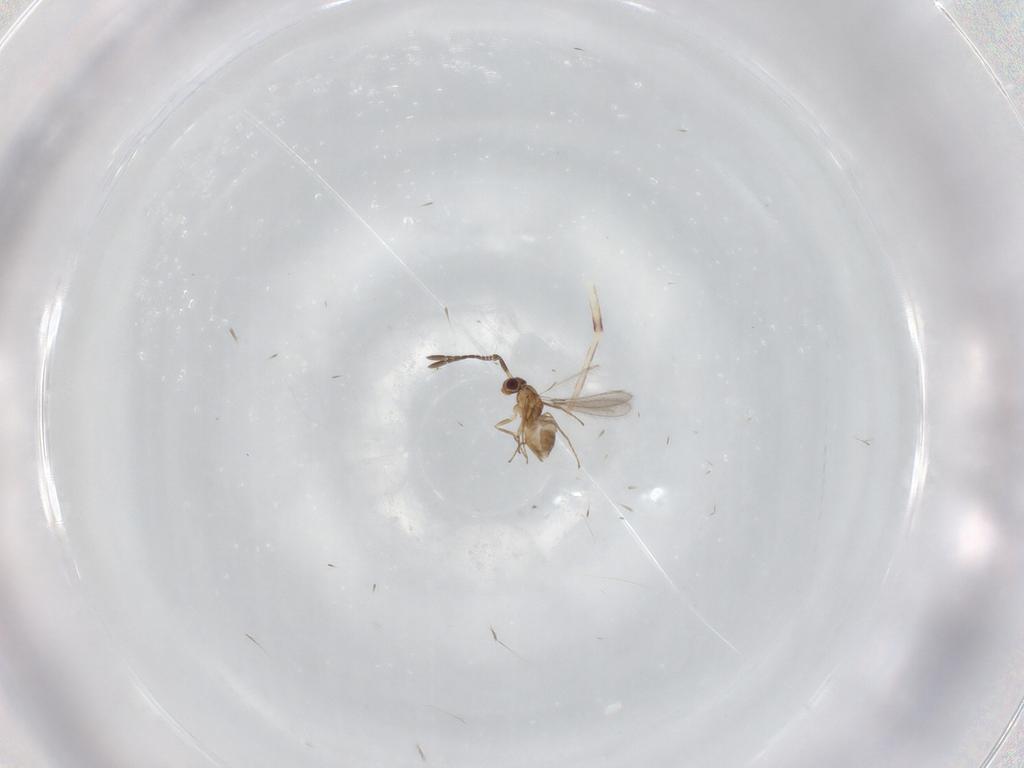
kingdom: Animalia
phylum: Arthropoda
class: Insecta
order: Hymenoptera
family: Mymaridae
